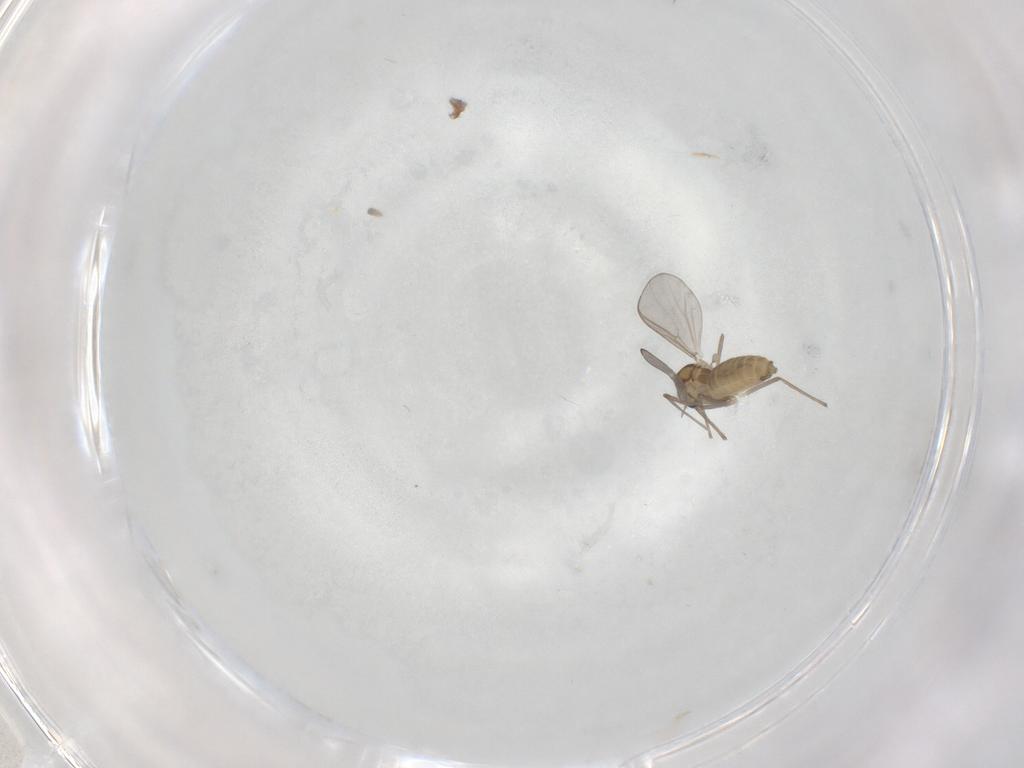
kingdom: Animalia
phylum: Arthropoda
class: Insecta
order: Diptera
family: Chironomidae
